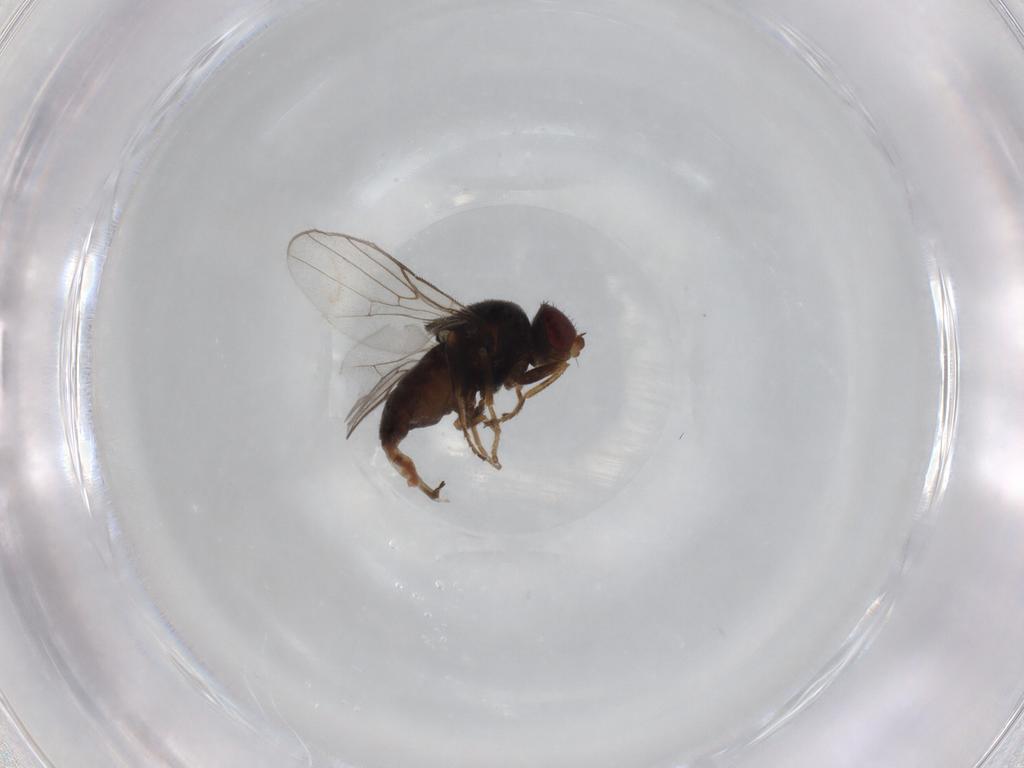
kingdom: Animalia
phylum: Arthropoda
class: Insecta
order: Diptera
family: Chloropidae
